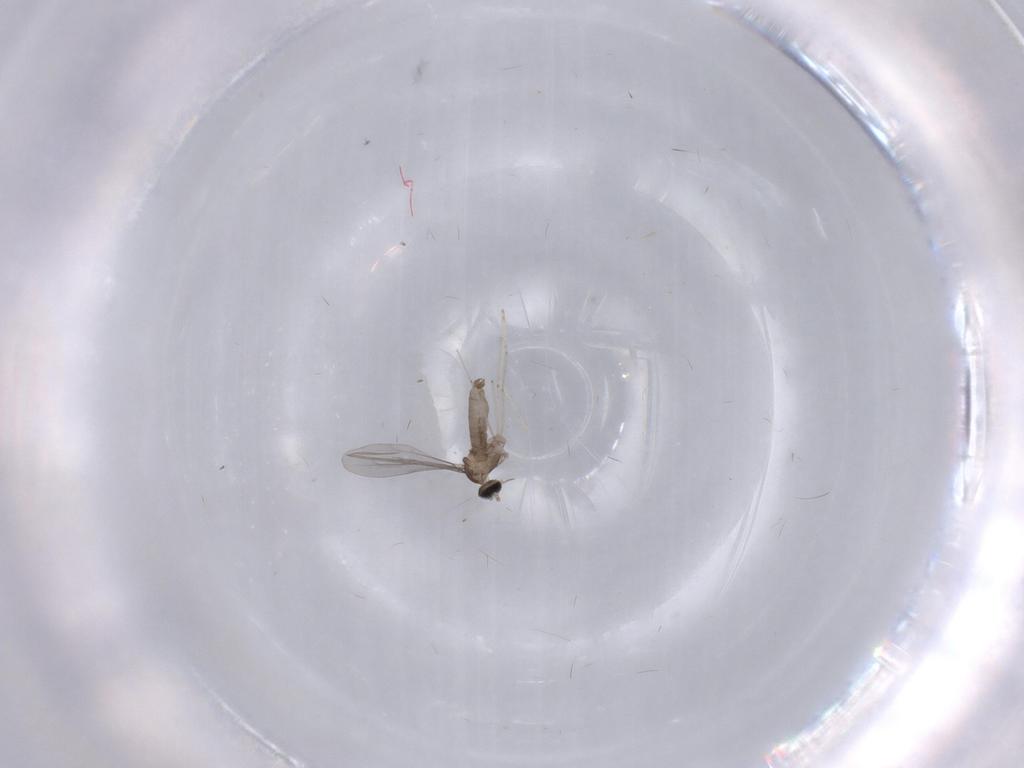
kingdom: Animalia
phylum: Arthropoda
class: Insecta
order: Diptera
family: Cecidomyiidae
